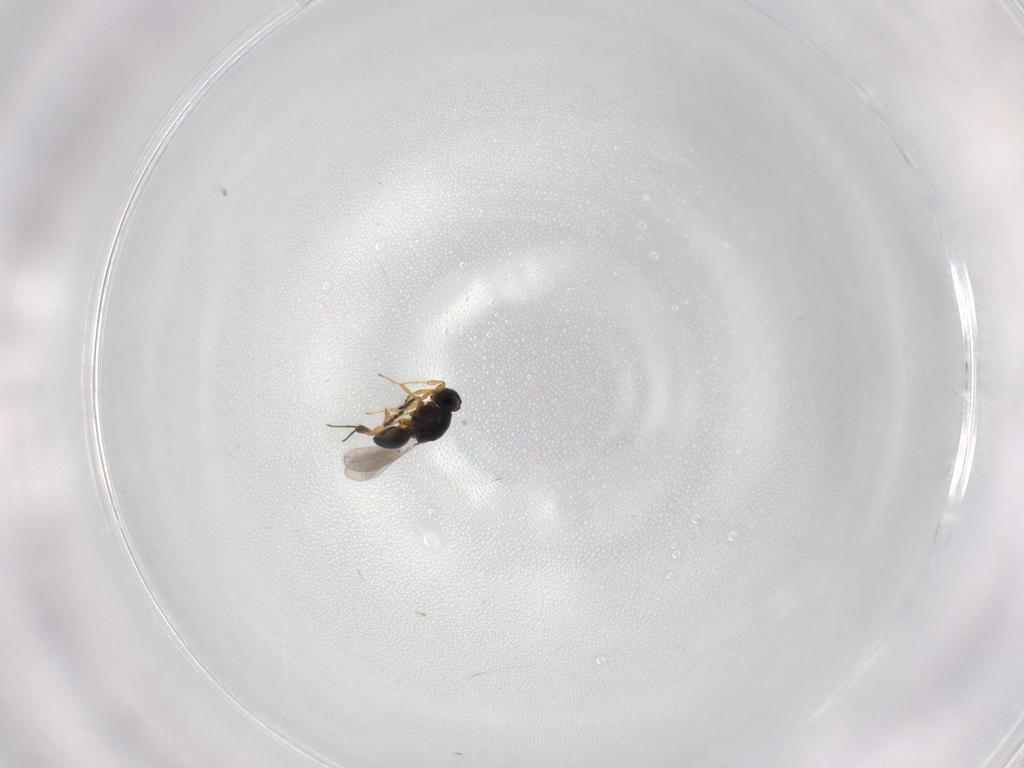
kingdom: Animalia
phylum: Arthropoda
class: Insecta
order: Hymenoptera
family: Platygastridae
